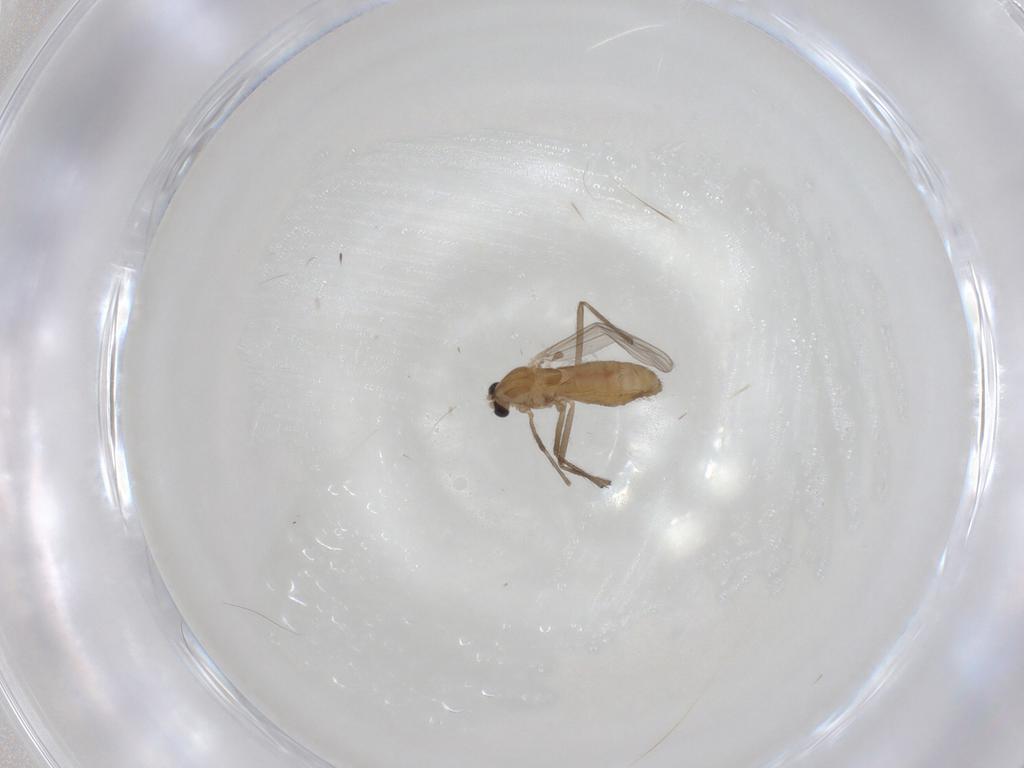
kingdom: Animalia
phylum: Arthropoda
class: Insecta
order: Diptera
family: Chironomidae
